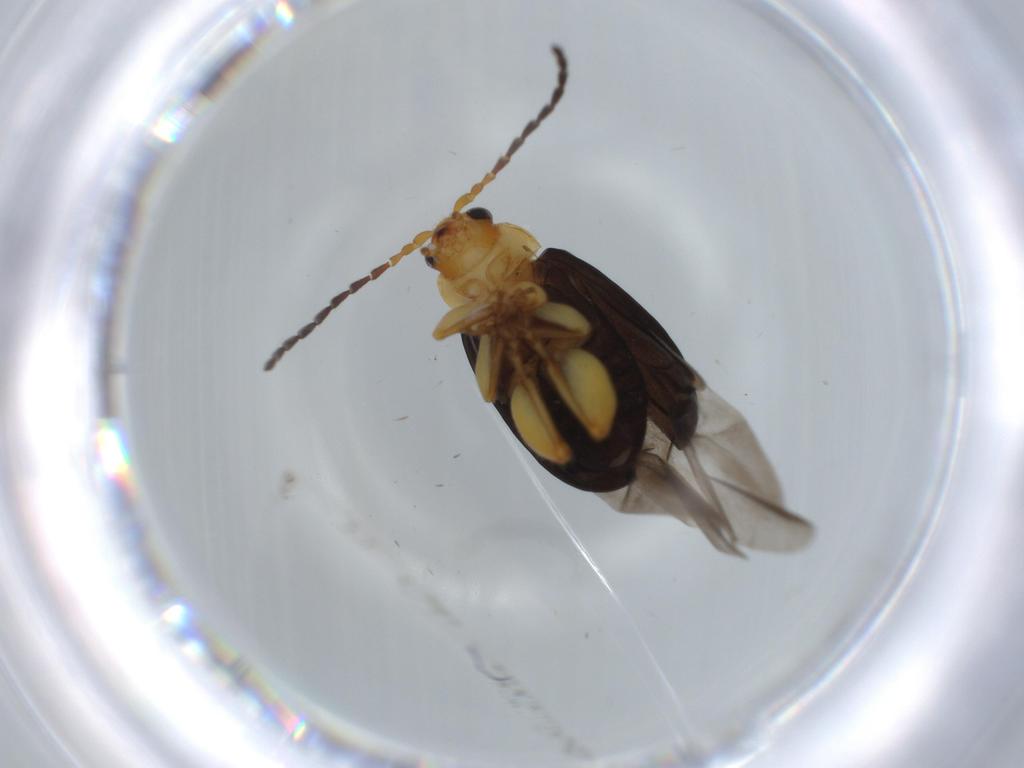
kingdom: Animalia
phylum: Arthropoda
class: Insecta
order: Coleoptera
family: Chrysomelidae
